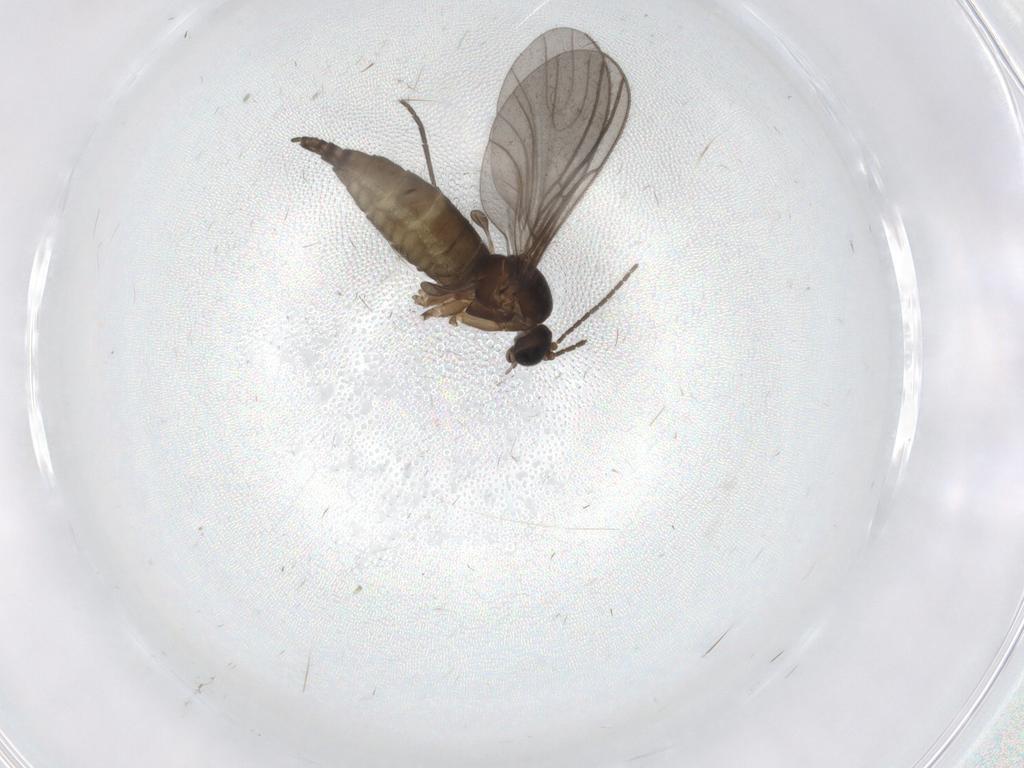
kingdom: Animalia
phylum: Arthropoda
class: Insecta
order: Diptera
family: Sciaridae
